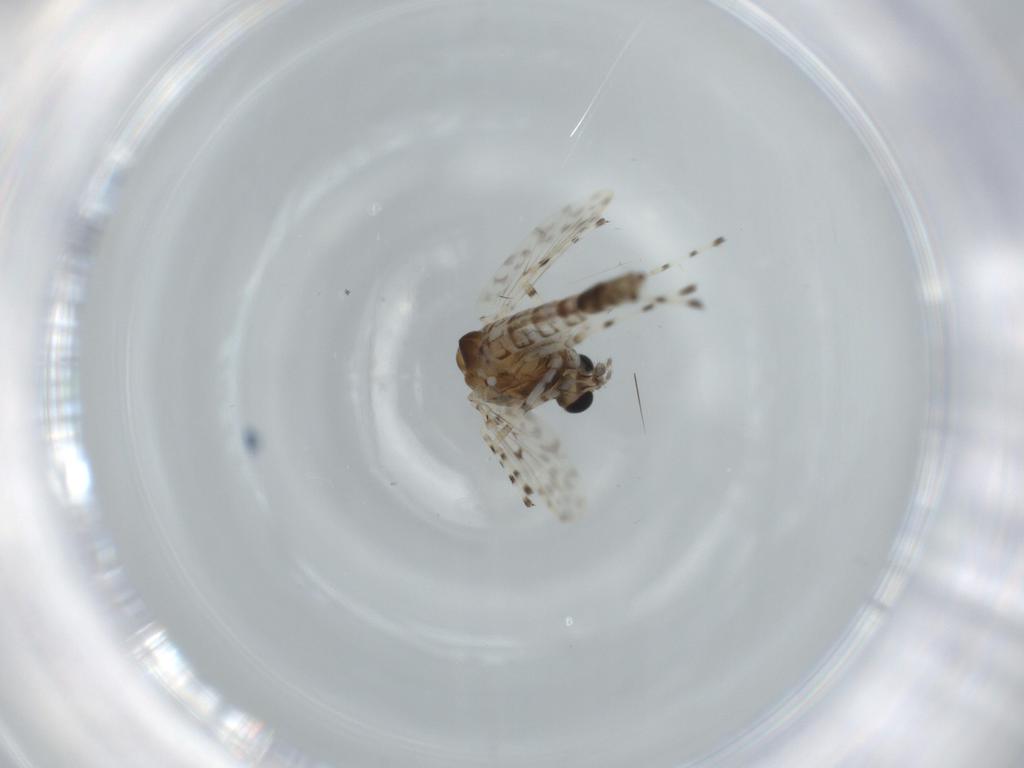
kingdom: Animalia
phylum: Arthropoda
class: Insecta
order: Diptera
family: Chironomidae
